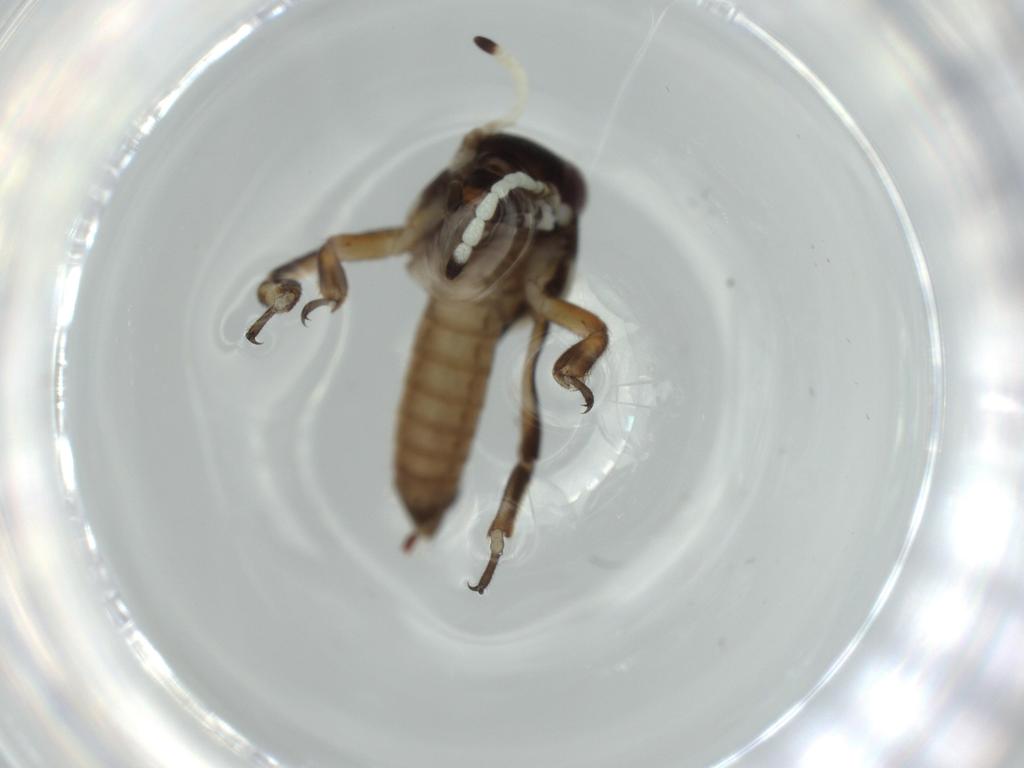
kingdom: Animalia
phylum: Arthropoda
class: Insecta
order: Orthoptera
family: Ripipterygidae
